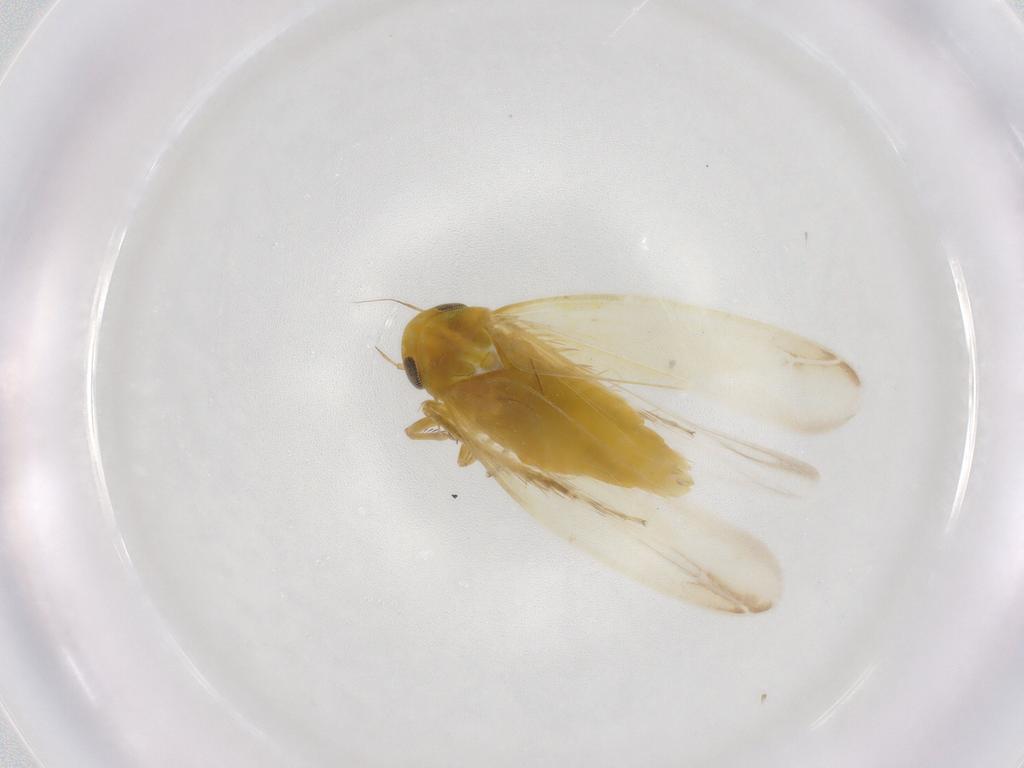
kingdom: Animalia
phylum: Arthropoda
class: Insecta
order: Hemiptera
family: Cicadellidae
